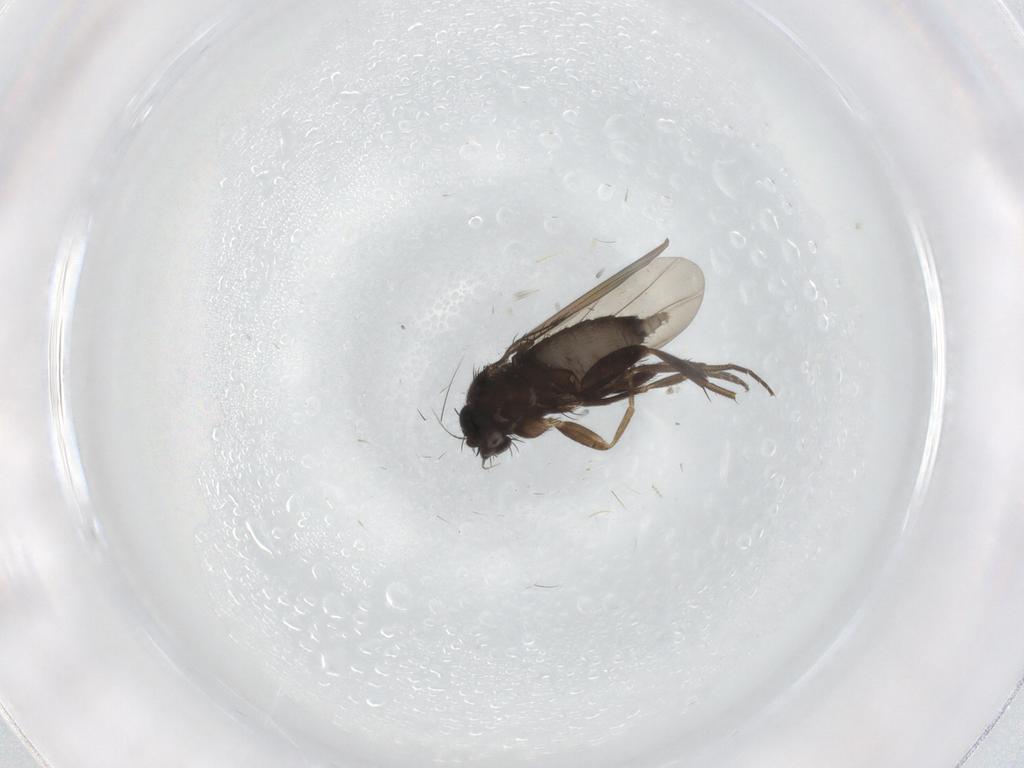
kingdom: Animalia
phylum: Arthropoda
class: Insecta
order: Diptera
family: Phoridae
